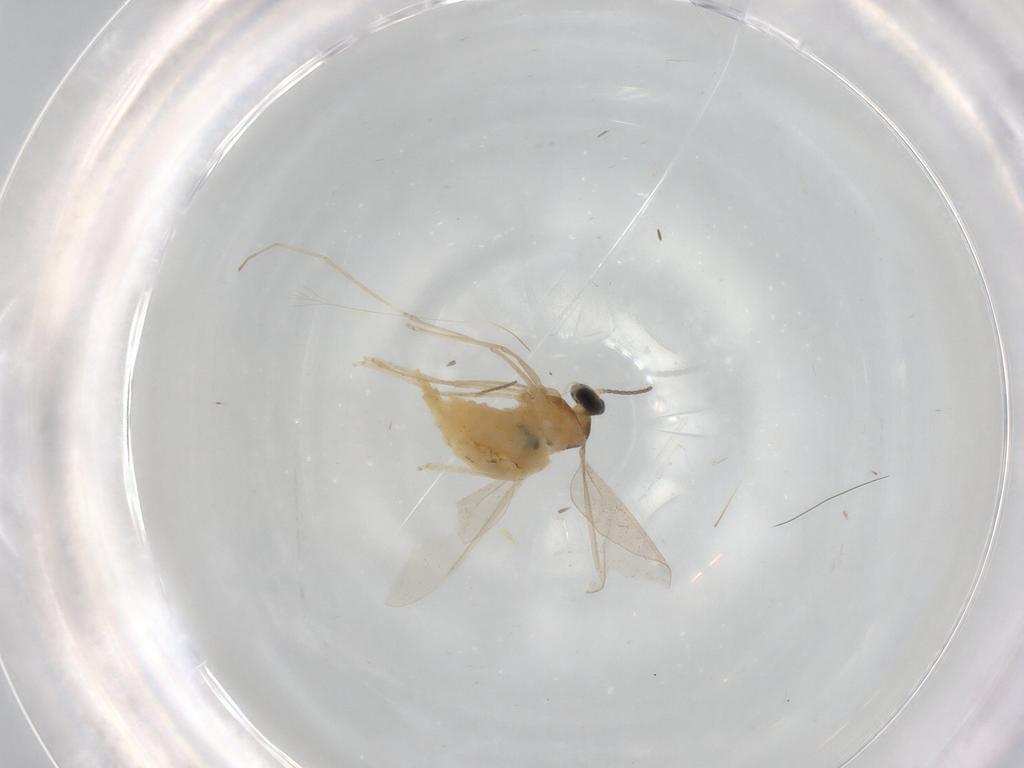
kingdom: Animalia
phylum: Arthropoda
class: Insecta
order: Diptera
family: Cecidomyiidae
